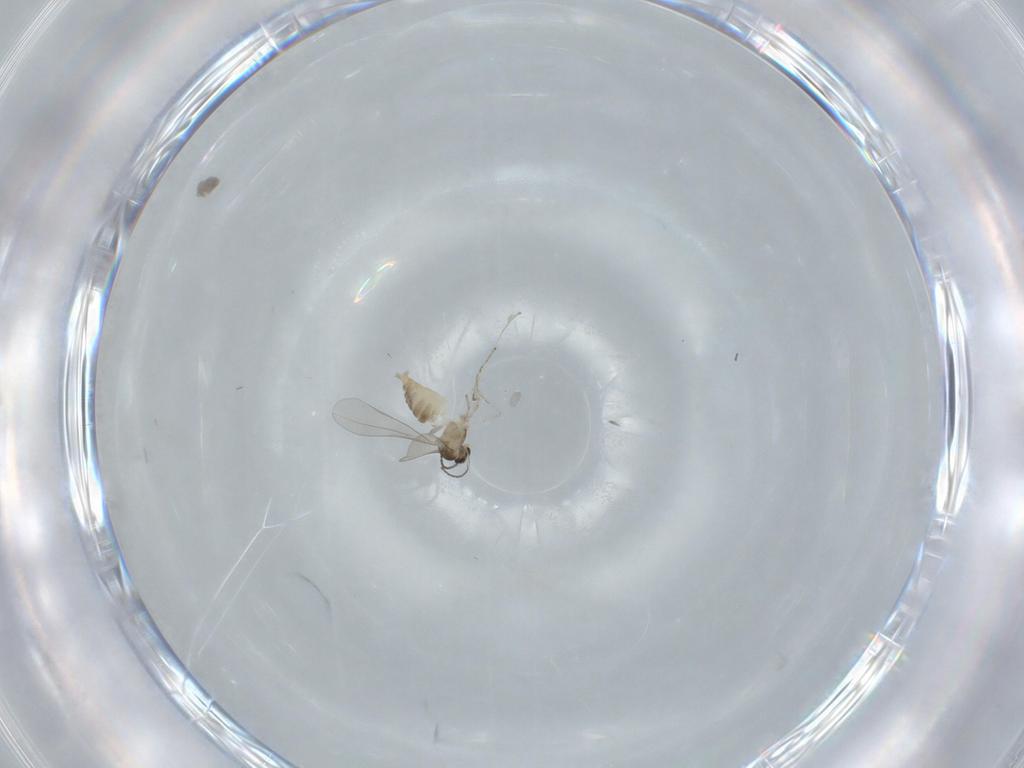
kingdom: Animalia
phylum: Arthropoda
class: Insecta
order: Diptera
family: Cecidomyiidae
